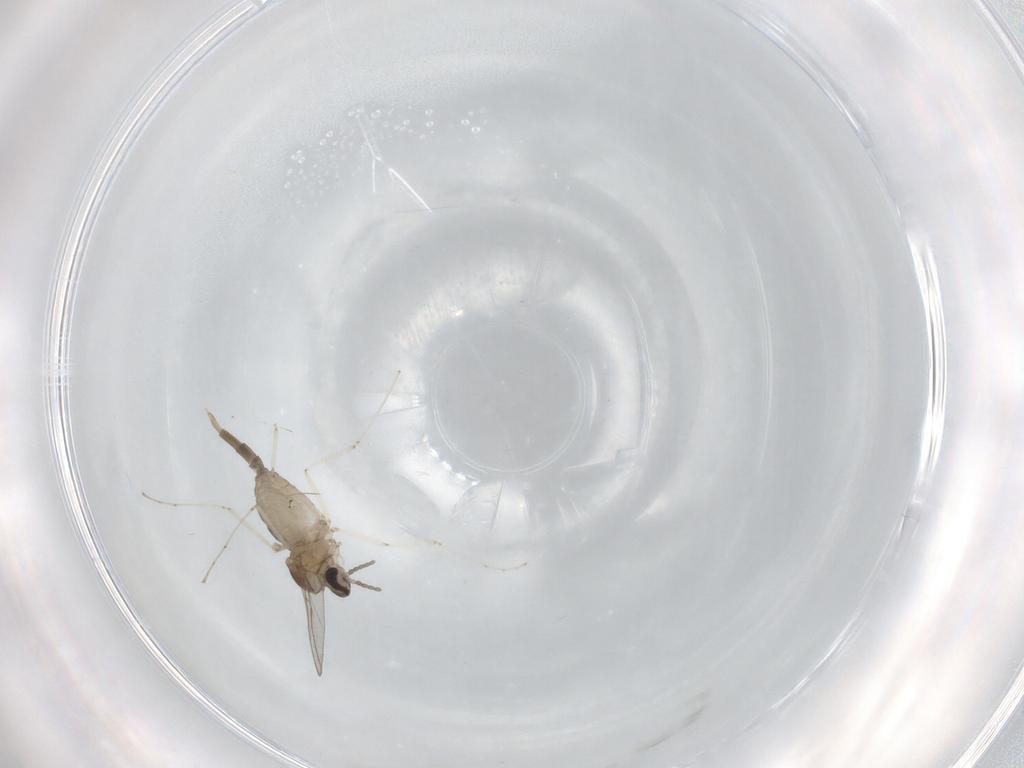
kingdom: Animalia
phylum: Arthropoda
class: Insecta
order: Diptera
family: Cecidomyiidae
